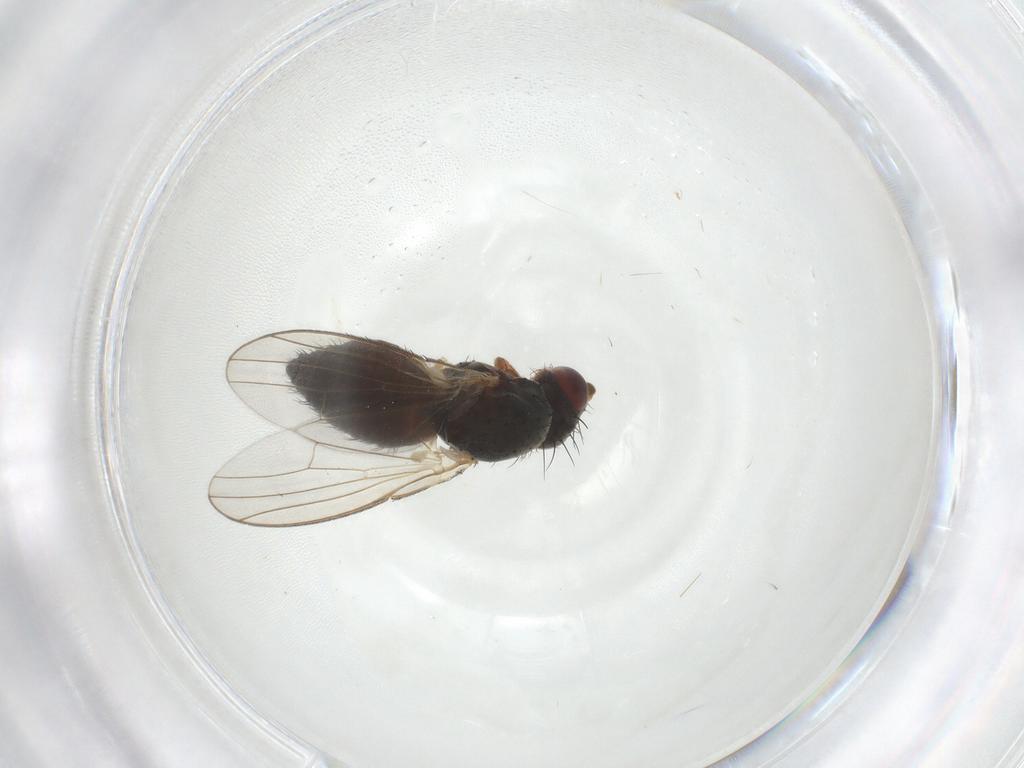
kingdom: Animalia
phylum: Arthropoda
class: Insecta
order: Diptera
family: Heleomyzidae
